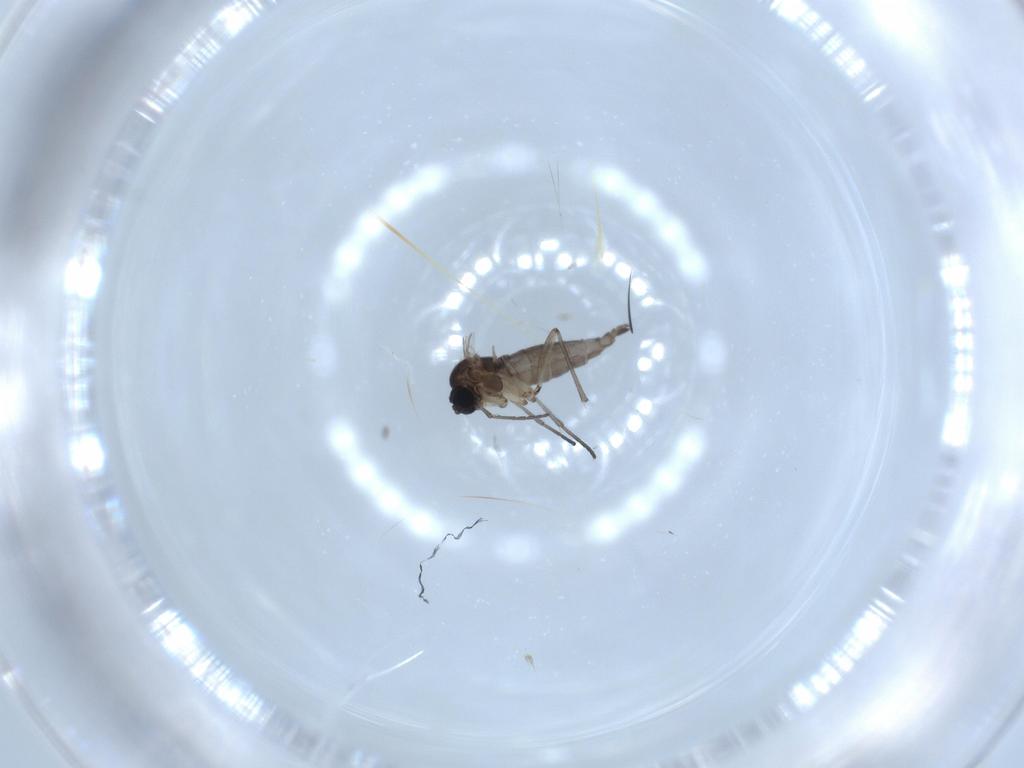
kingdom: Animalia
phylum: Arthropoda
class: Insecta
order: Diptera
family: Sciaridae
